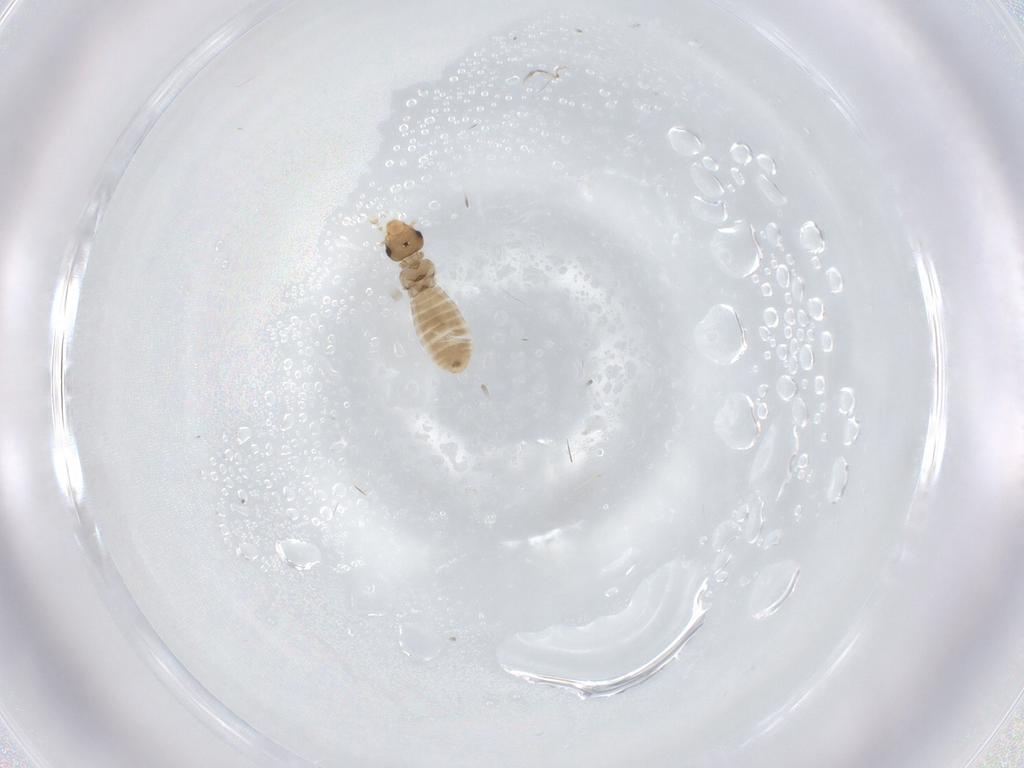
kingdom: Animalia
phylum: Arthropoda
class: Insecta
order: Psocodea
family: Liposcelididae
